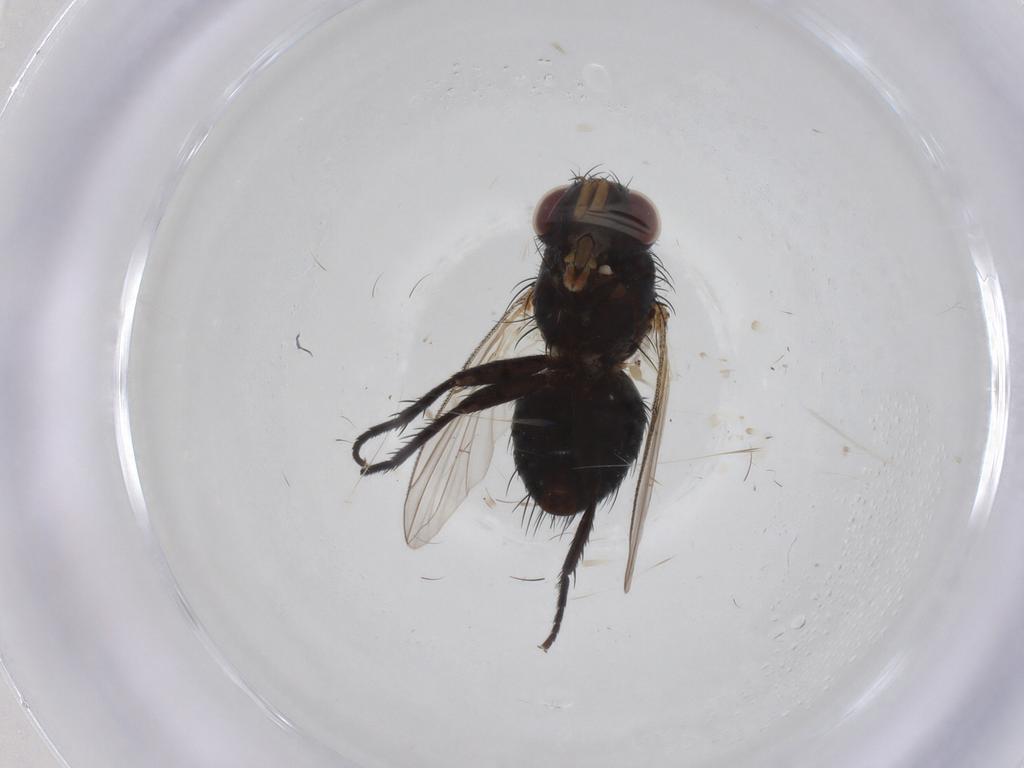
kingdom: Animalia
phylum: Arthropoda
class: Insecta
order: Diptera
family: Tachinidae
